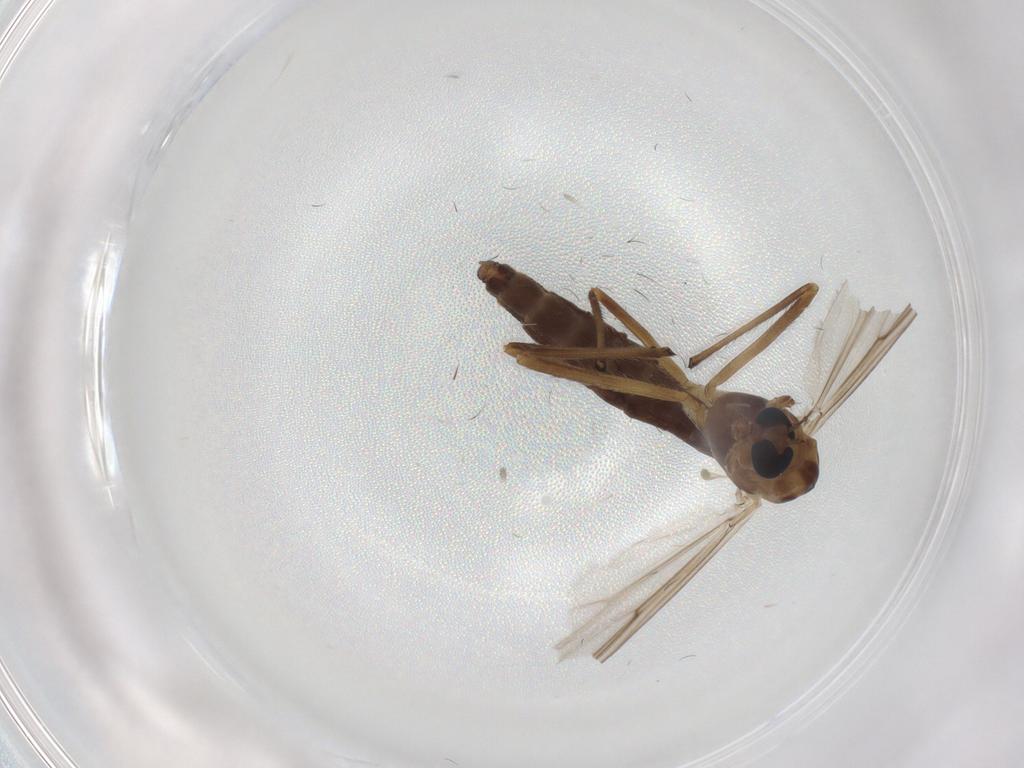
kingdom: Animalia
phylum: Arthropoda
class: Insecta
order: Diptera
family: Chironomidae
